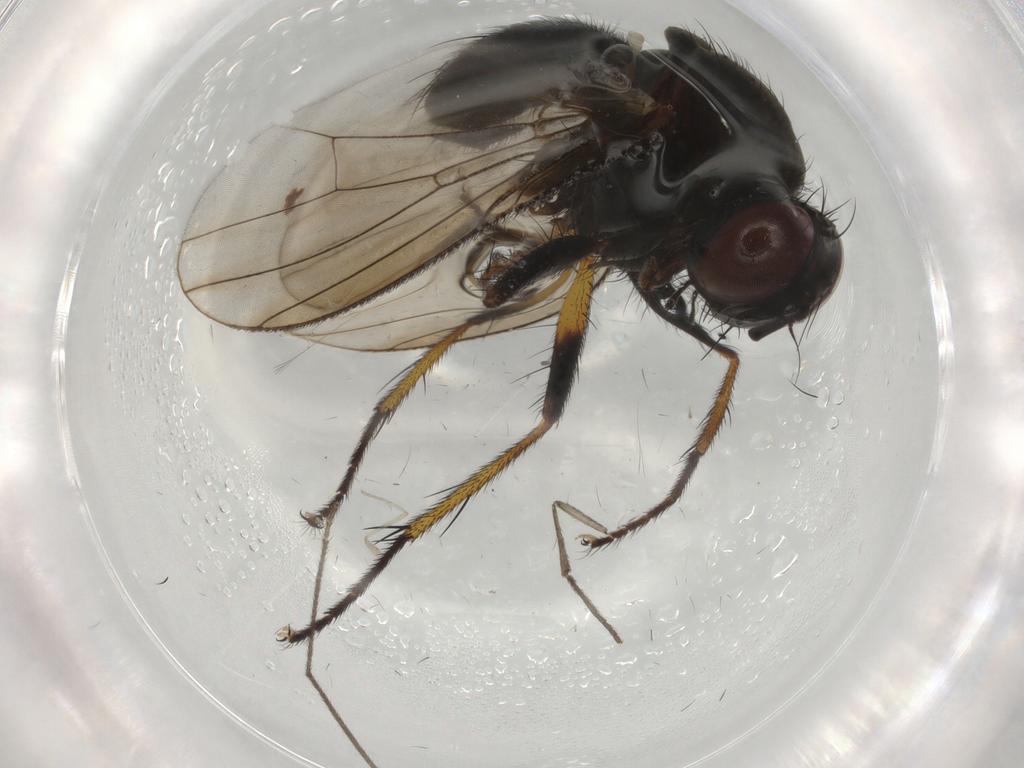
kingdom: Animalia
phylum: Arthropoda
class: Insecta
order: Diptera
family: Muscidae
